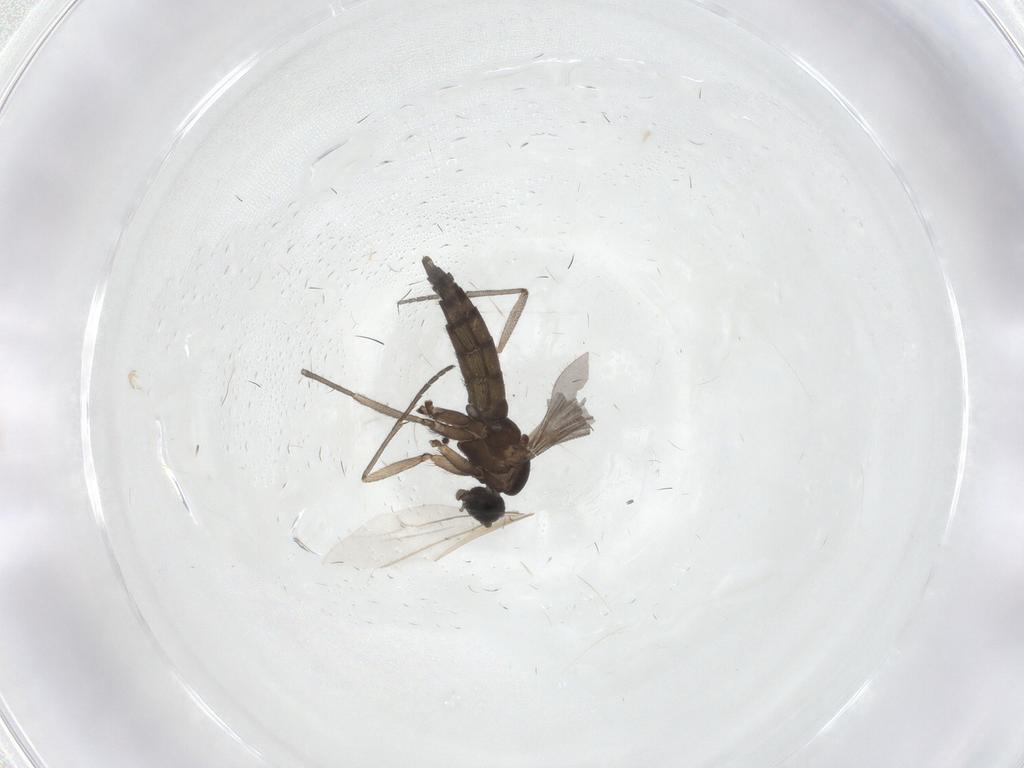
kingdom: Animalia
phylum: Arthropoda
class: Insecta
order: Diptera
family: Sciaridae
